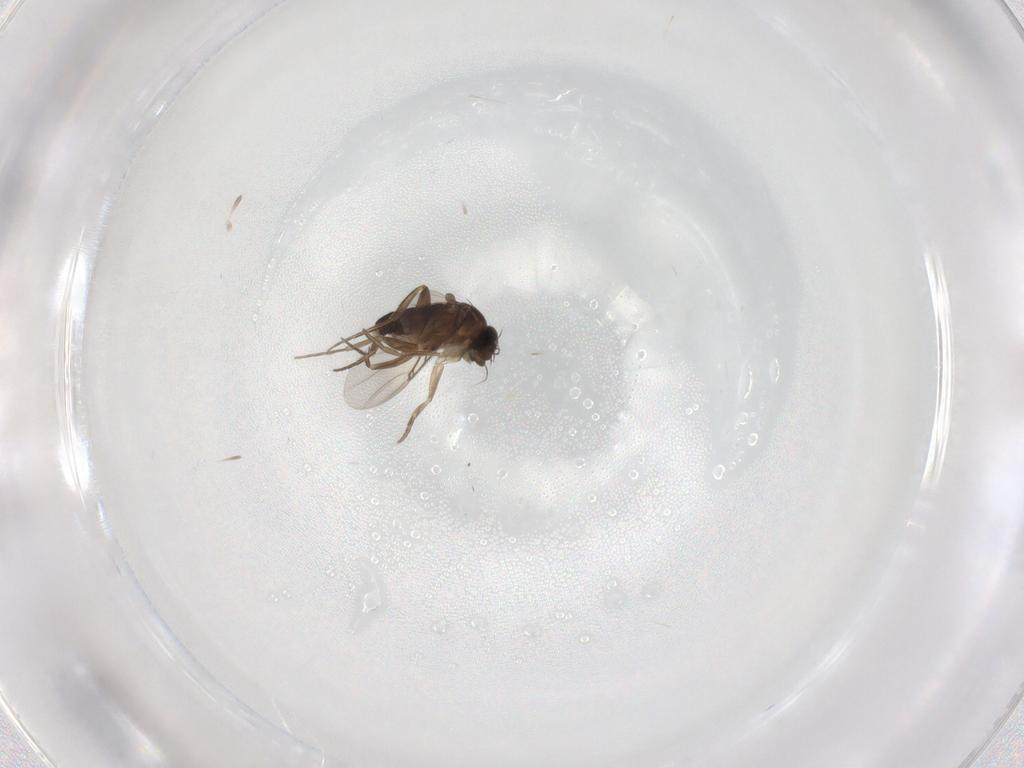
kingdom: Animalia
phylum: Arthropoda
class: Insecta
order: Diptera
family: Phoridae
